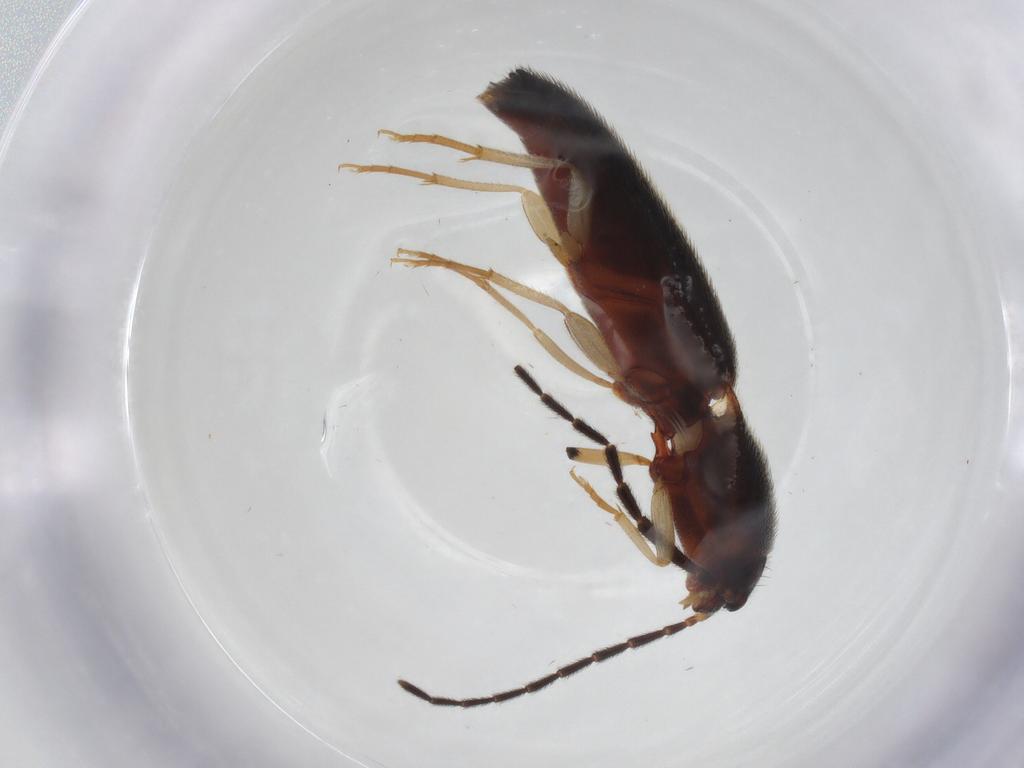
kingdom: Animalia
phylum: Arthropoda
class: Insecta
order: Coleoptera
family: Elateridae
